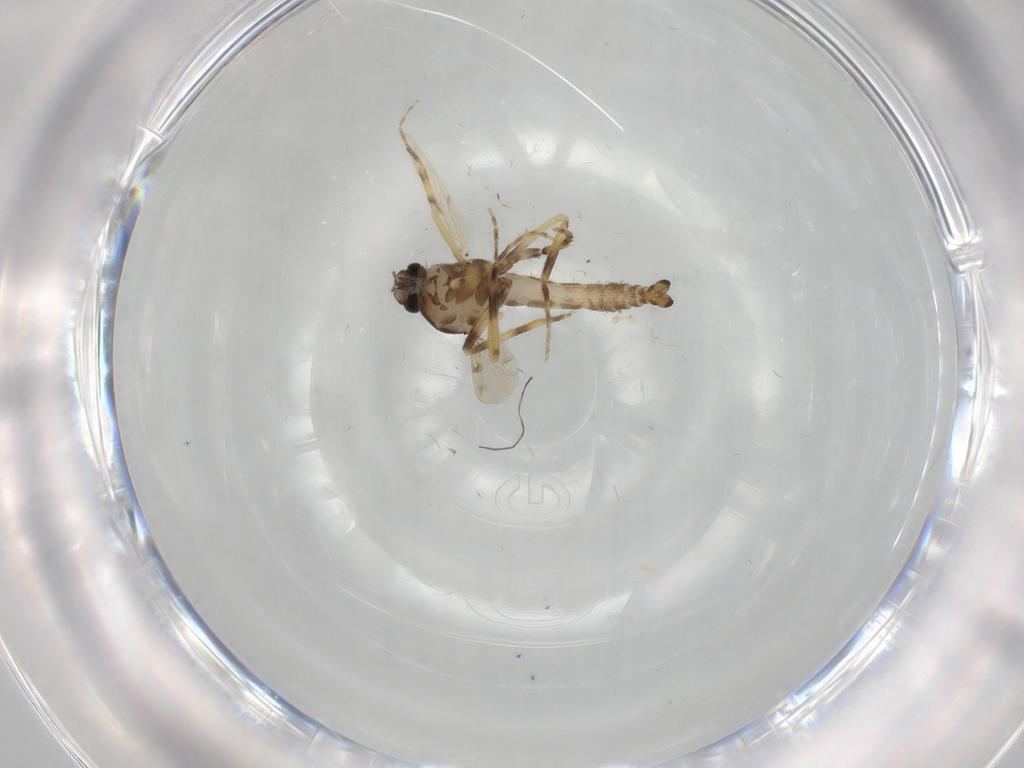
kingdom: Animalia
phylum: Arthropoda
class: Insecta
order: Diptera
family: Ceratopogonidae
